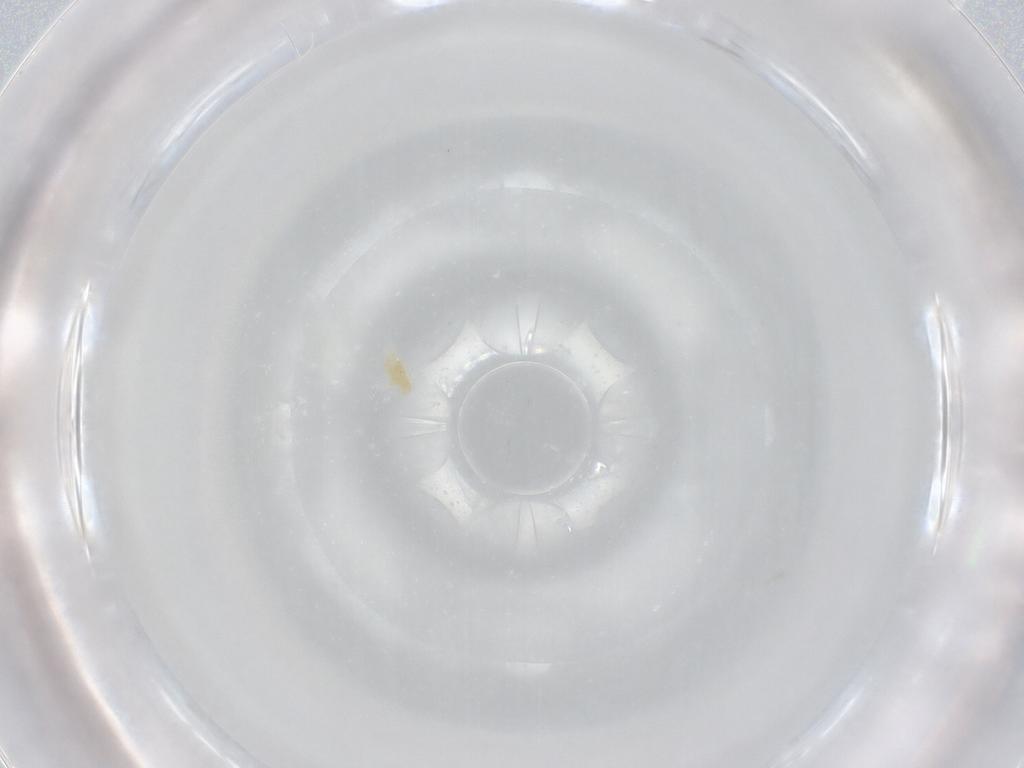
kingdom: Animalia
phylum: Arthropoda
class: Arachnida
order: Trombidiformes
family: Eupodidae
